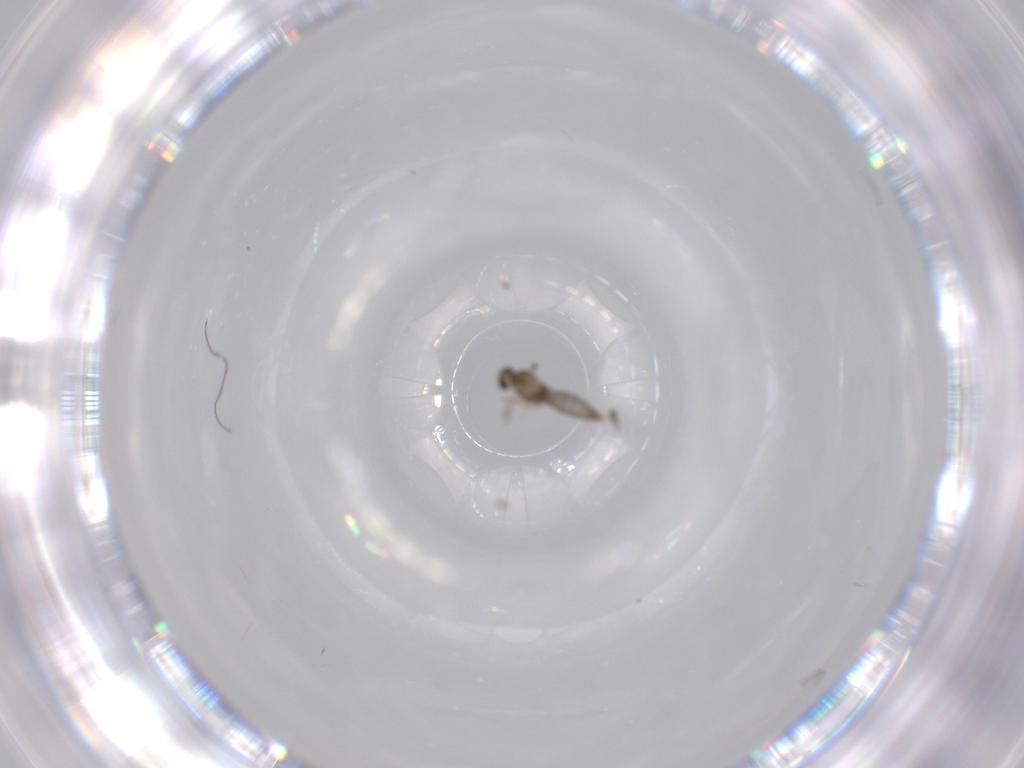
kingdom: Animalia
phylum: Arthropoda
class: Insecta
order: Diptera
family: Cecidomyiidae
